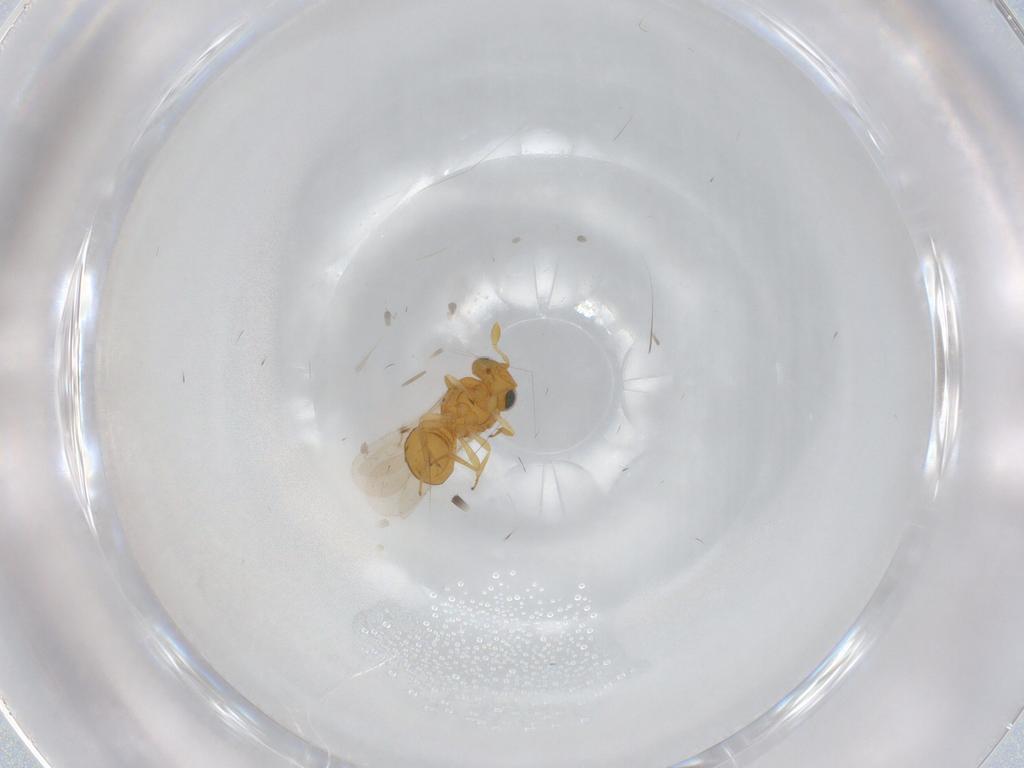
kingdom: Animalia
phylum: Arthropoda
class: Insecta
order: Hymenoptera
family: Scelionidae
